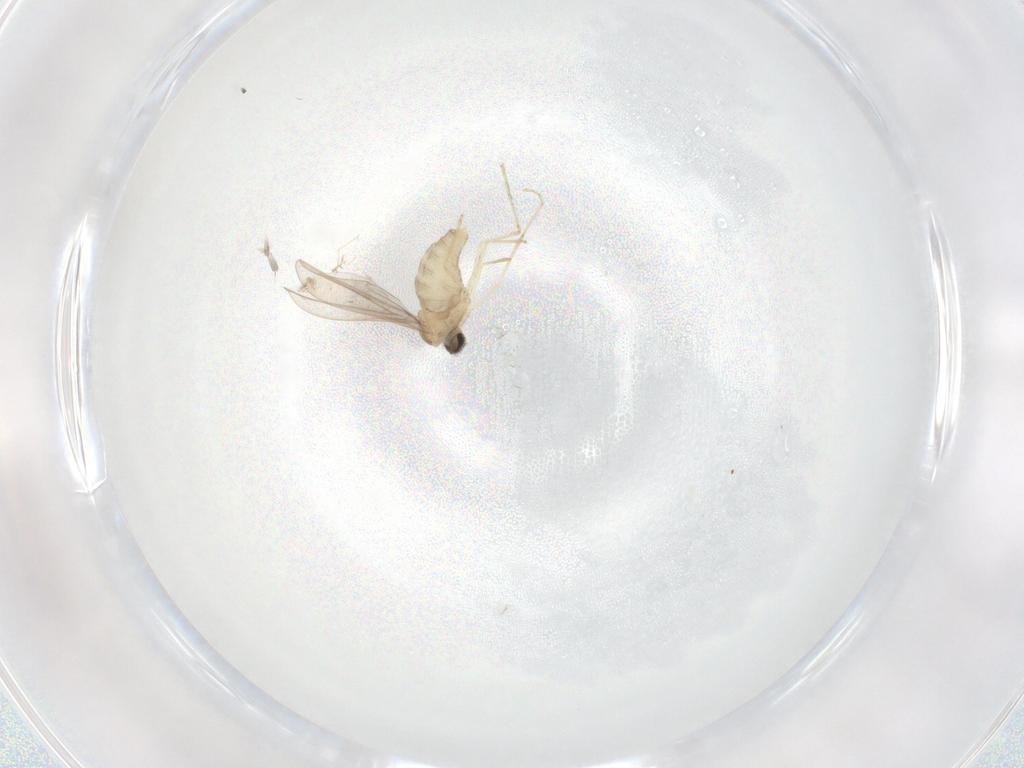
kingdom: Animalia
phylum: Arthropoda
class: Insecta
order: Diptera
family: Cecidomyiidae
